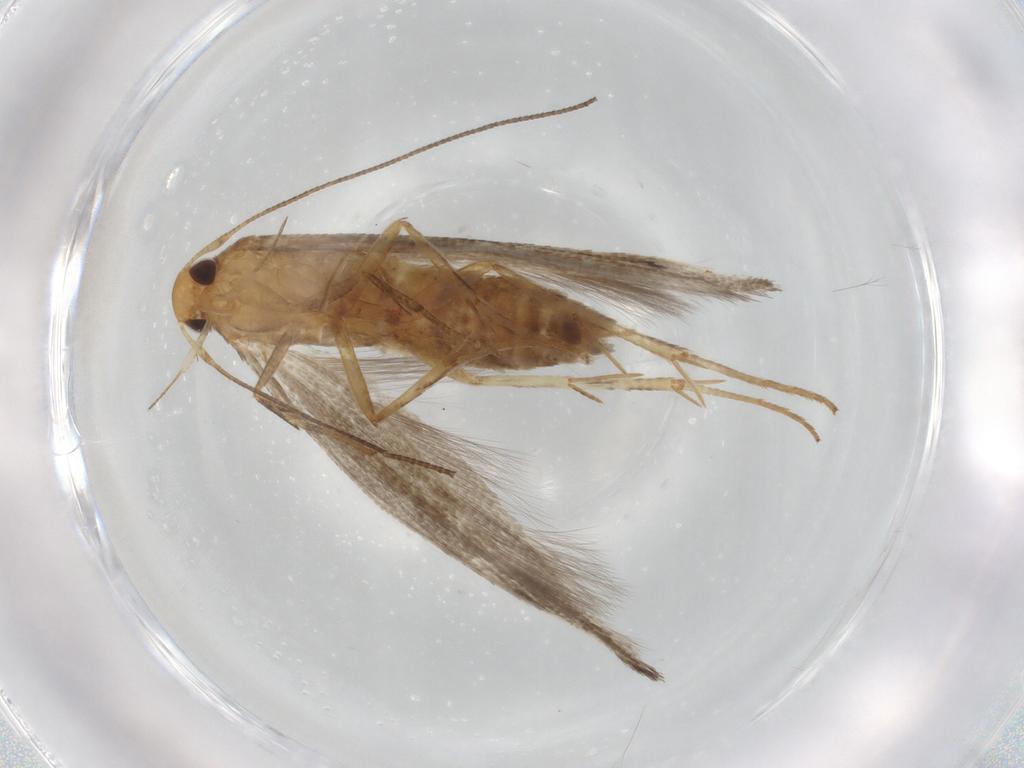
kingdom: Animalia
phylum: Arthropoda
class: Insecta
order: Lepidoptera
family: Cosmopterigidae
